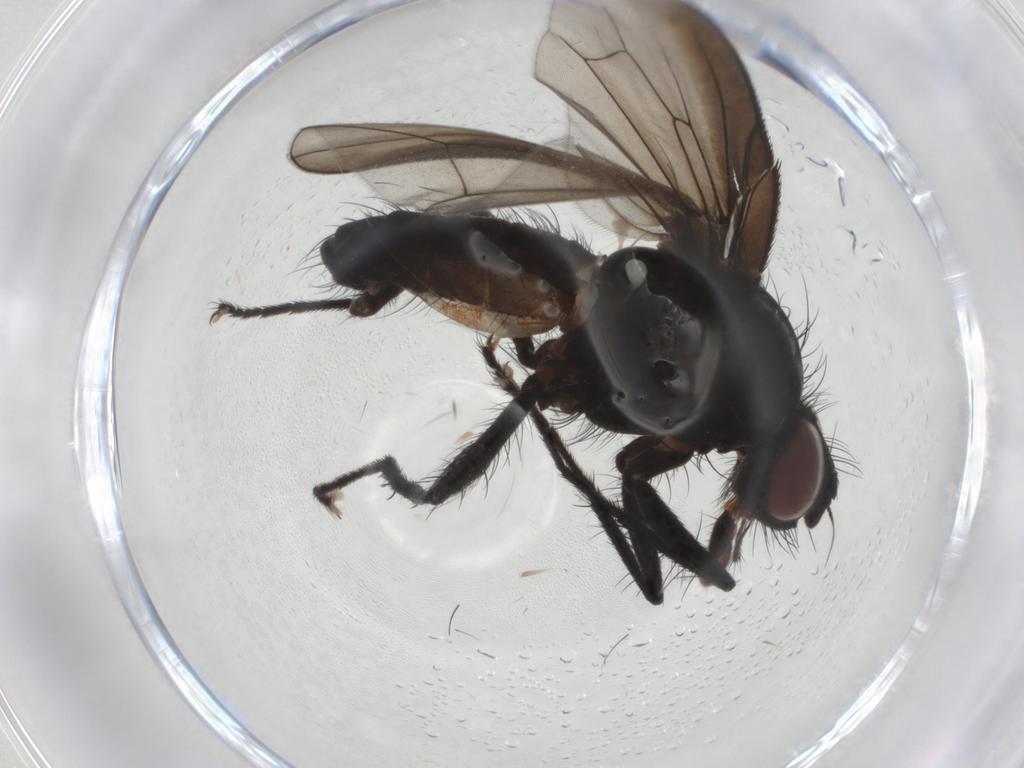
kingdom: Animalia
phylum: Arthropoda
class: Insecta
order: Diptera
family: Anthomyiidae
